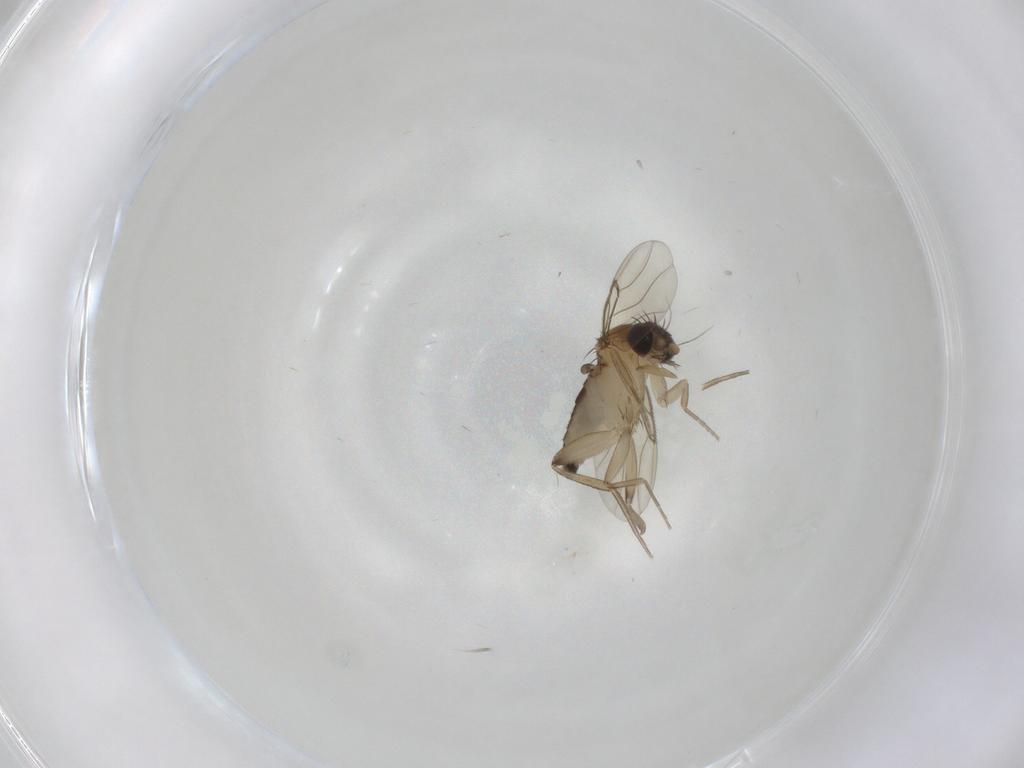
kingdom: Animalia
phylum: Arthropoda
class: Insecta
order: Diptera
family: Phoridae
